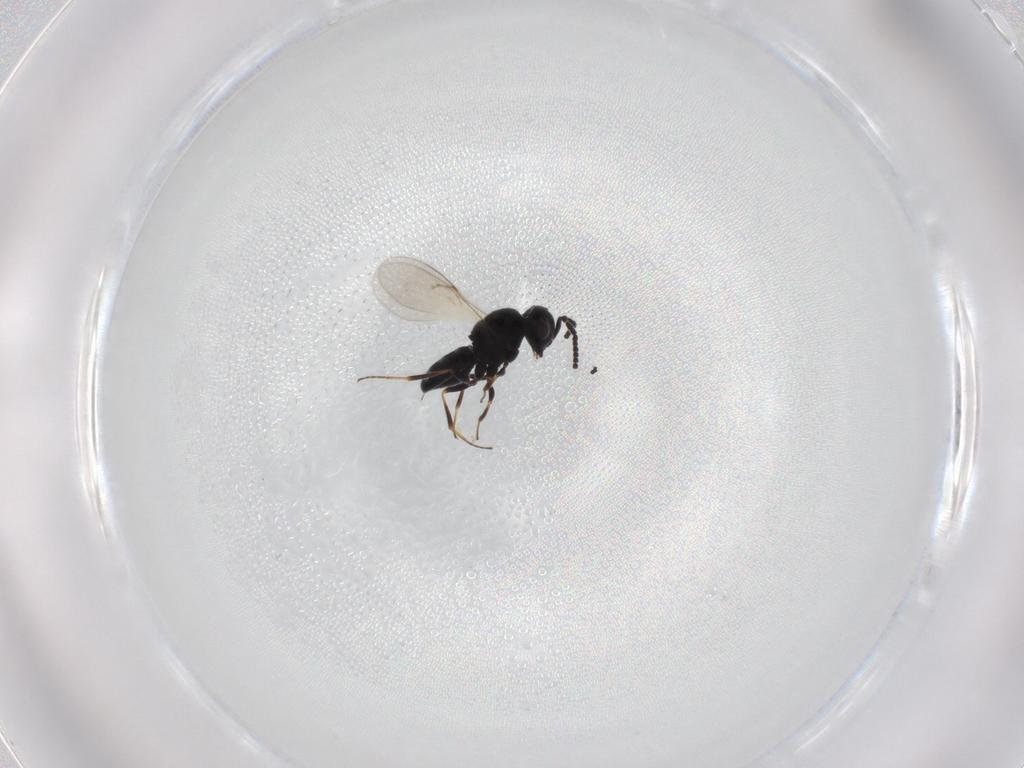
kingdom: Animalia
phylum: Arthropoda
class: Insecta
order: Hymenoptera
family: Scelionidae
